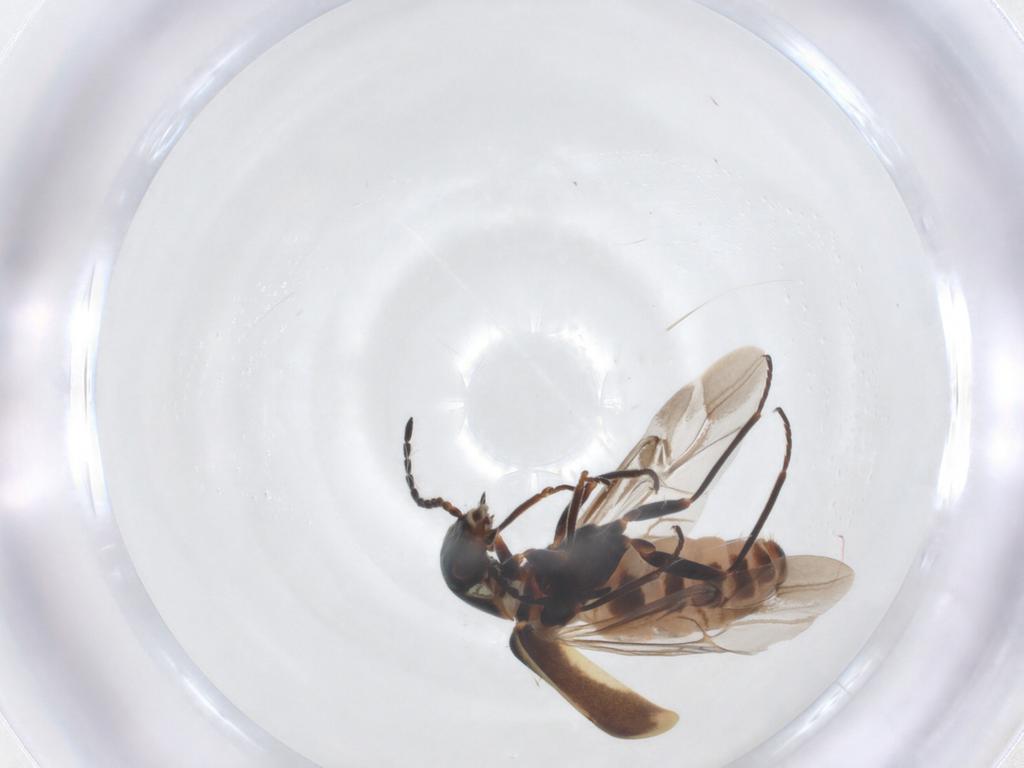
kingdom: Animalia
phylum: Arthropoda
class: Insecta
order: Coleoptera
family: Melyridae
